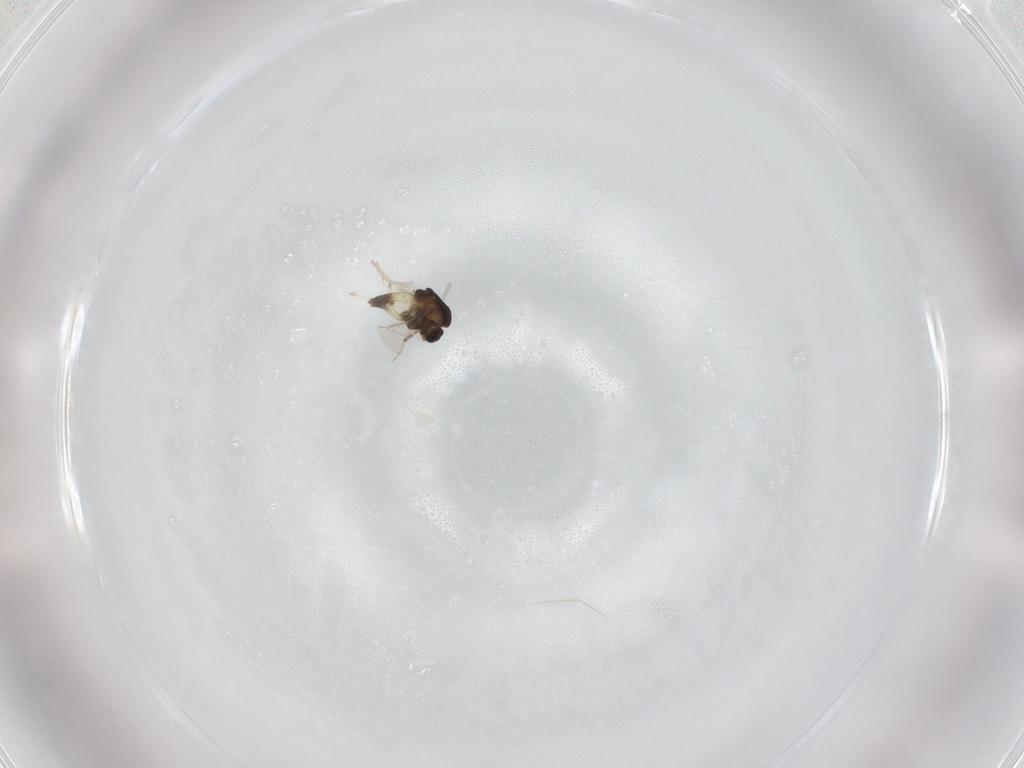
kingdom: Animalia
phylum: Arthropoda
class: Insecta
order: Diptera
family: Chironomidae
